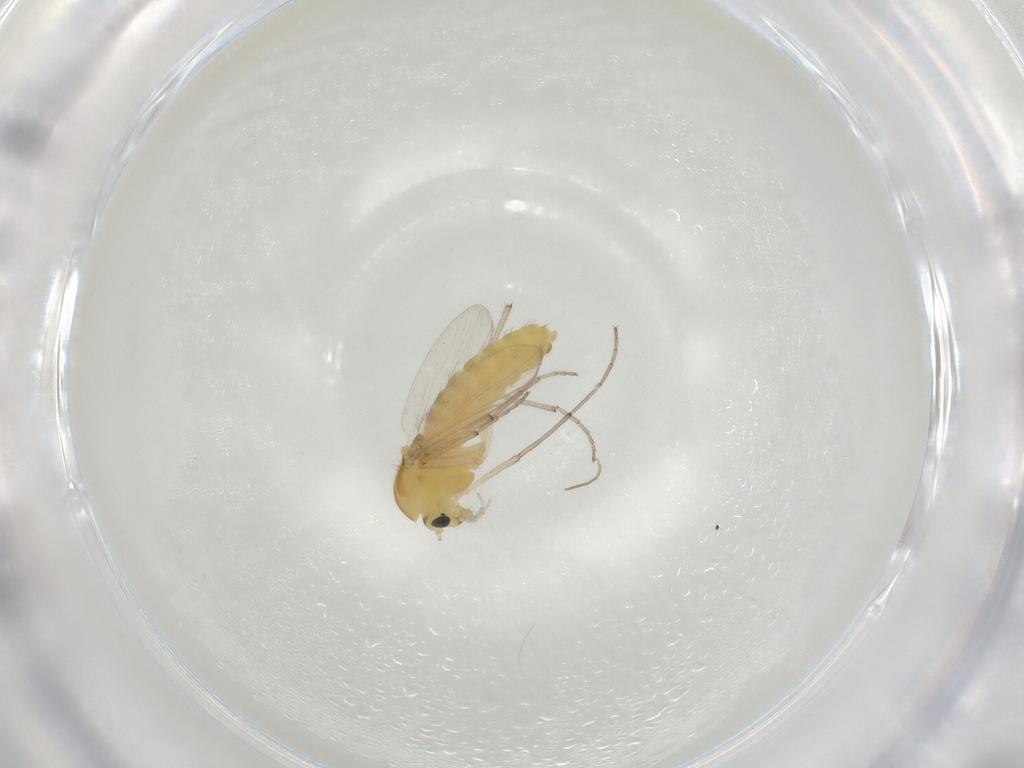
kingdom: Animalia
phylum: Arthropoda
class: Insecta
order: Diptera
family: Chironomidae
